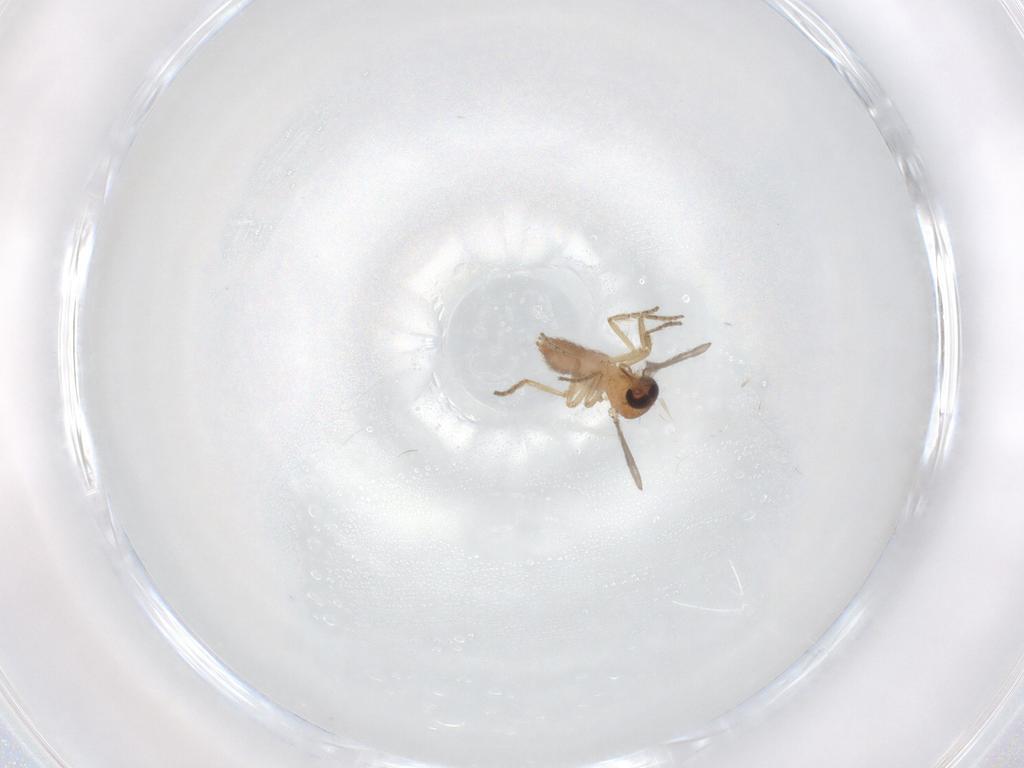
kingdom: Animalia
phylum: Arthropoda
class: Insecta
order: Diptera
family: Ceratopogonidae
